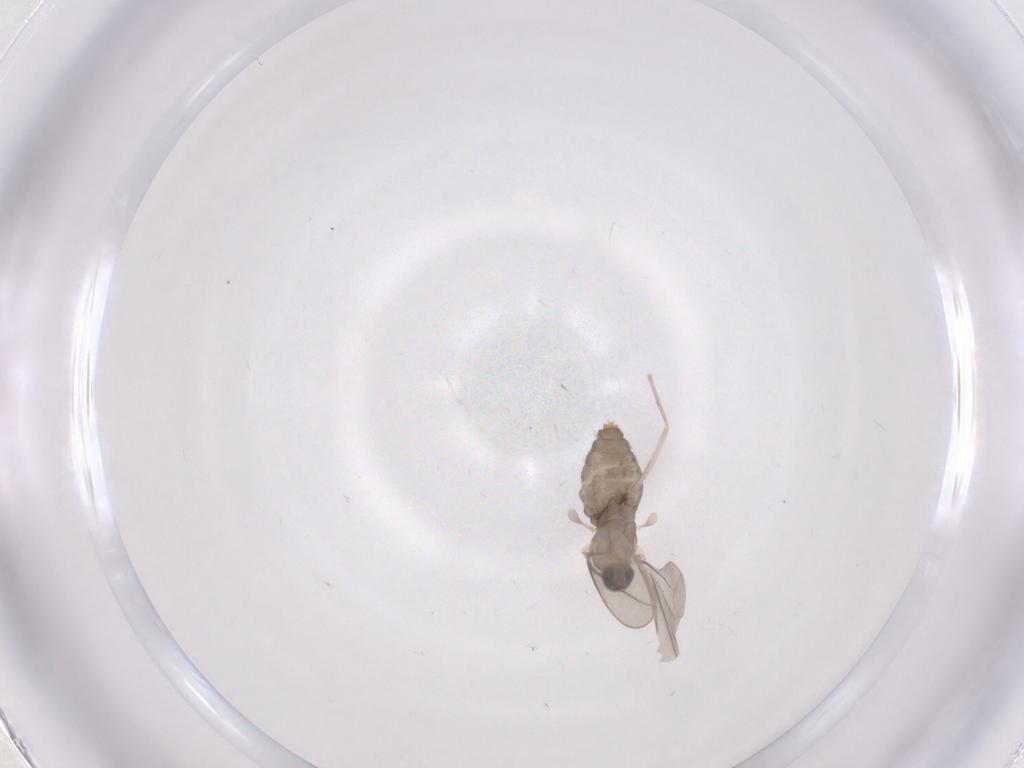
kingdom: Animalia
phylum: Arthropoda
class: Insecta
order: Diptera
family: Cecidomyiidae
